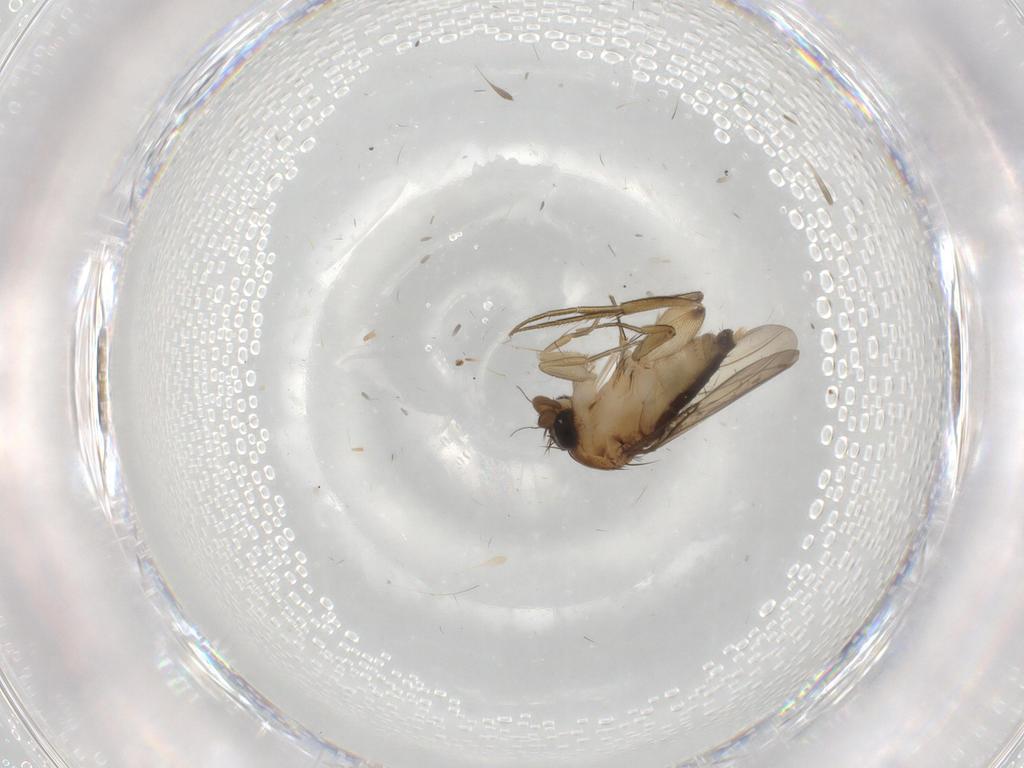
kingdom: Animalia
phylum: Arthropoda
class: Insecta
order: Diptera
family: Phoridae
